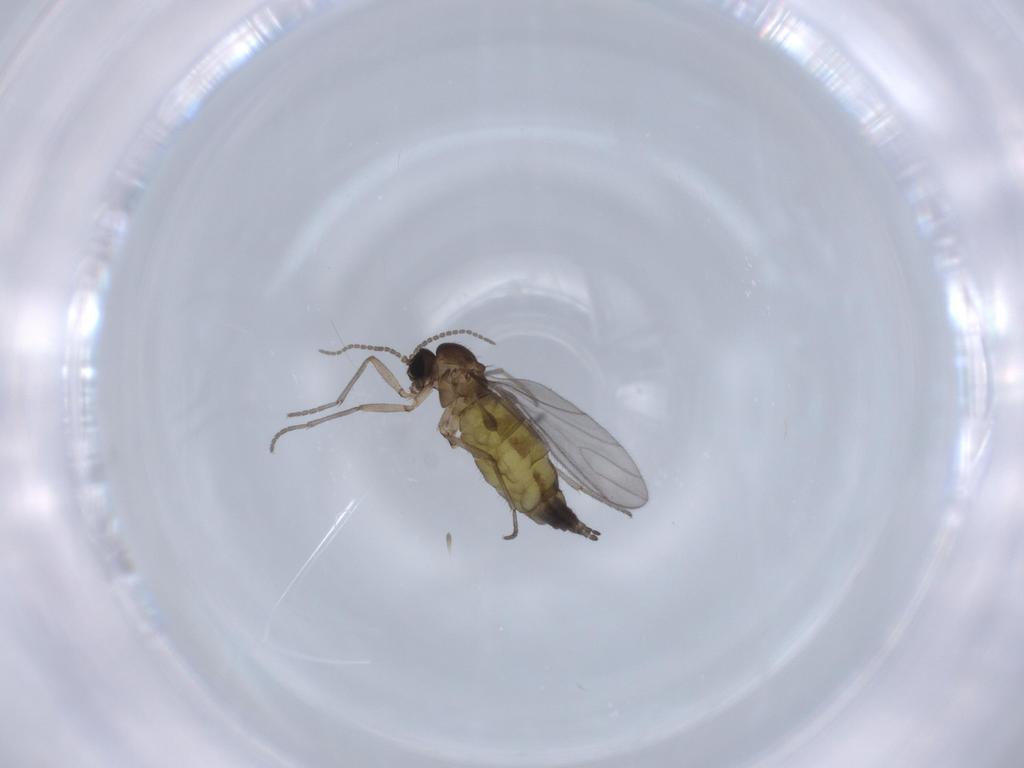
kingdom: Animalia
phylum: Arthropoda
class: Insecta
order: Diptera
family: Sciaridae
